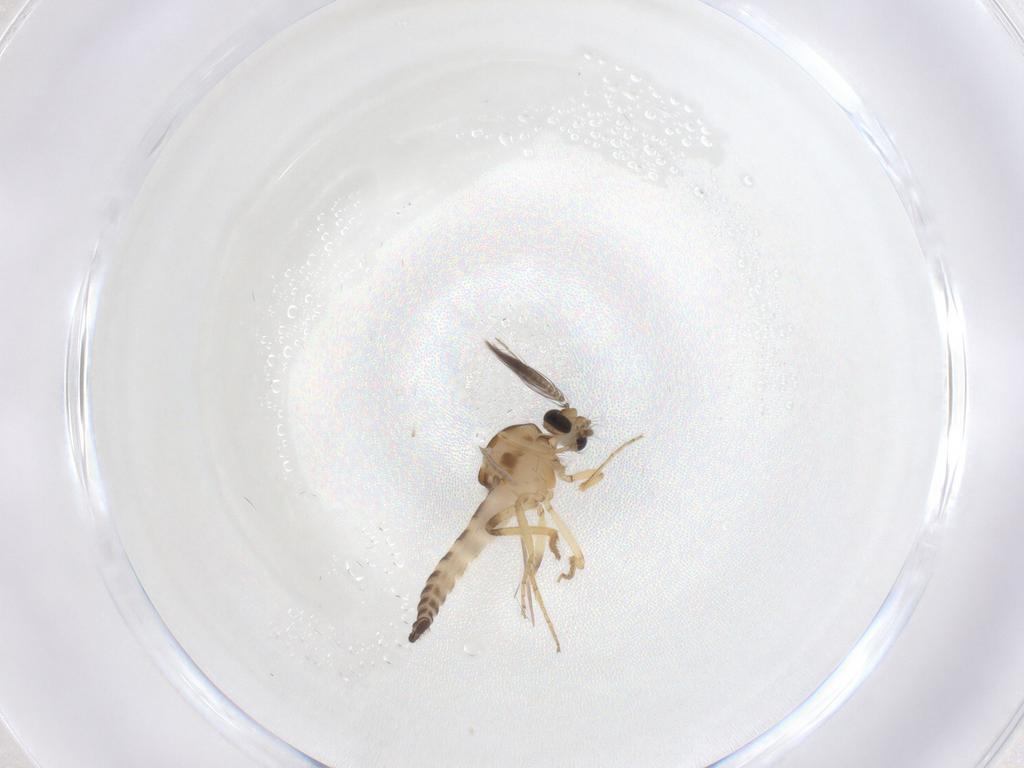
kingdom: Animalia
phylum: Arthropoda
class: Insecta
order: Diptera
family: Ceratopogonidae
